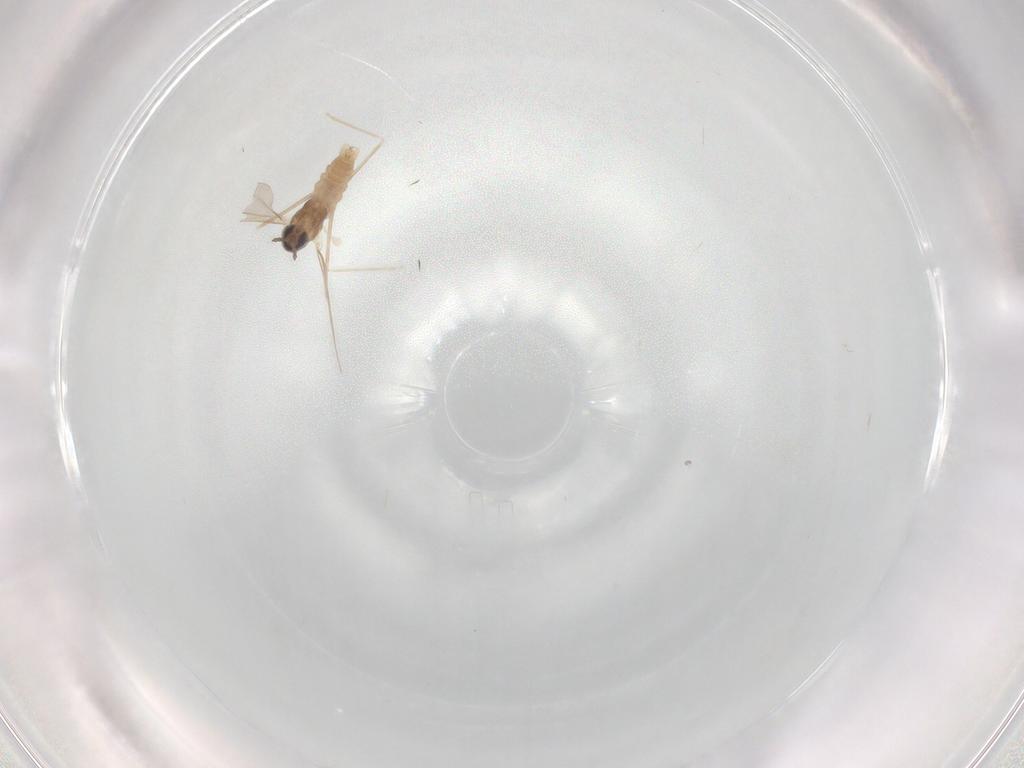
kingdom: Animalia
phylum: Arthropoda
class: Insecta
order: Diptera
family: Cecidomyiidae
